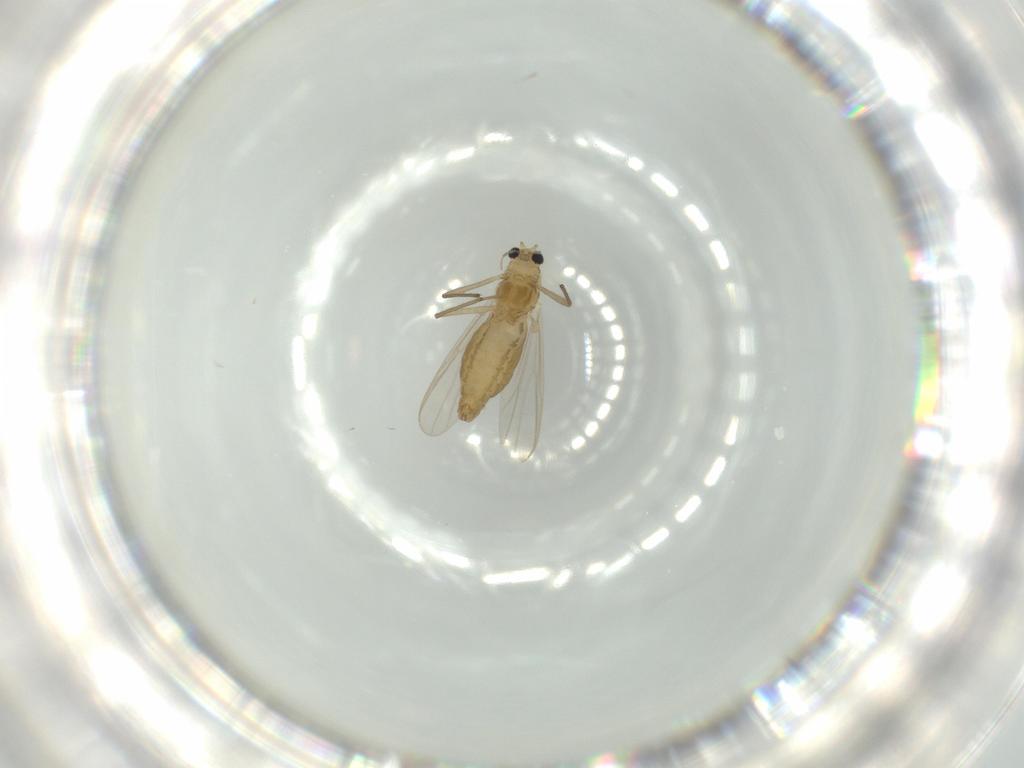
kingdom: Animalia
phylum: Arthropoda
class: Insecta
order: Diptera
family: Chironomidae
